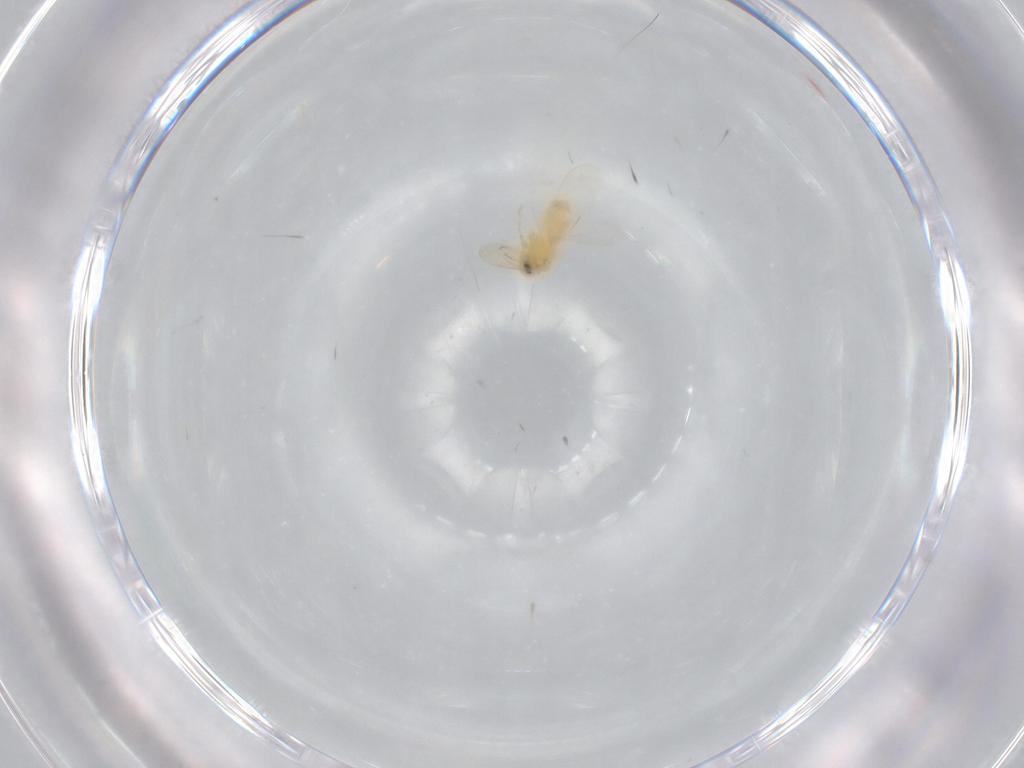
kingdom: Animalia
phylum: Arthropoda
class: Insecta
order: Hemiptera
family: Aleyrodidae
